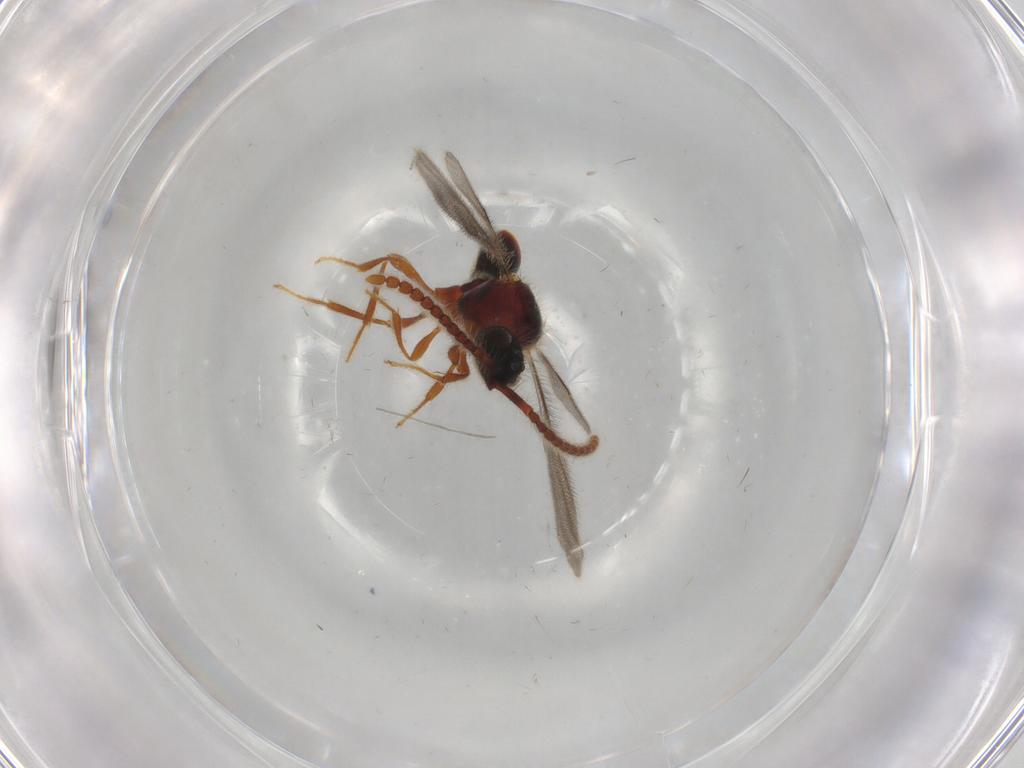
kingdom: Animalia
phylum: Arthropoda
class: Insecta
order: Hymenoptera
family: Diapriidae
